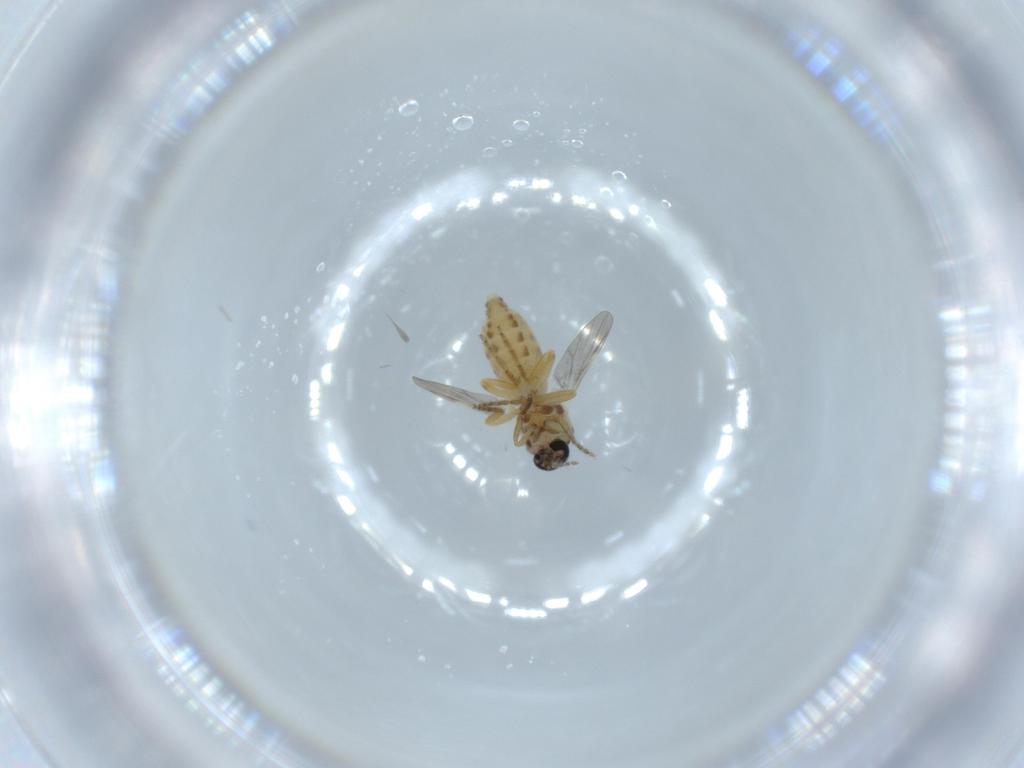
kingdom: Animalia
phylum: Arthropoda
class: Insecta
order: Diptera
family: Ceratopogonidae
